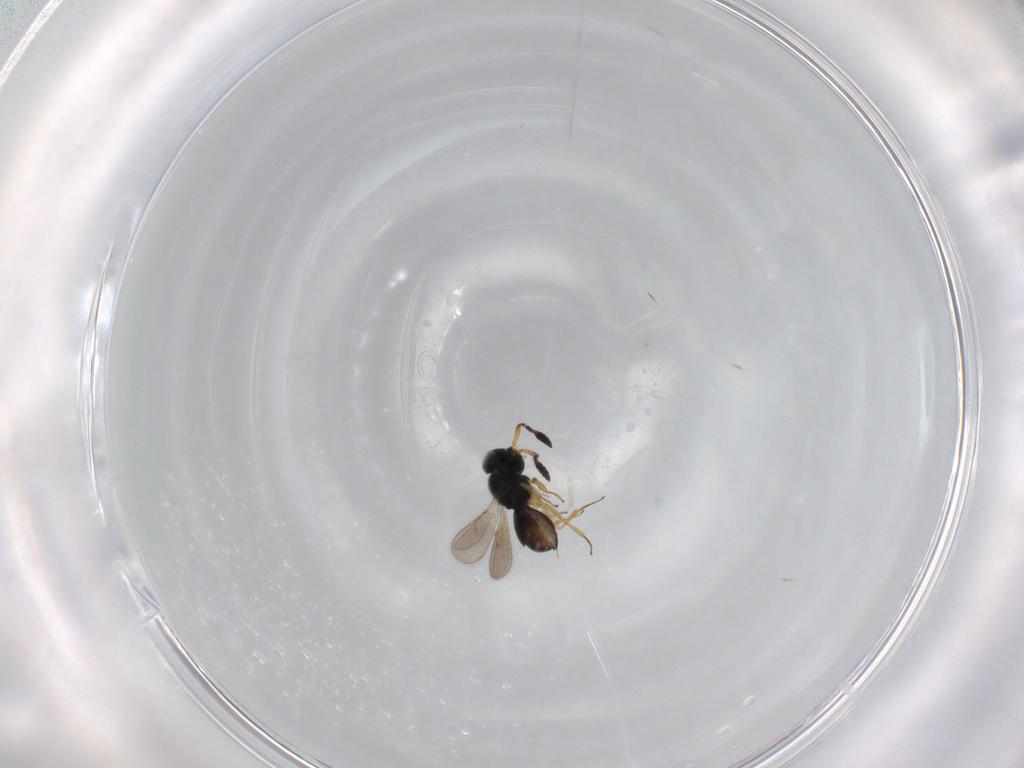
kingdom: Animalia
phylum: Arthropoda
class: Insecta
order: Hymenoptera
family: Scelionidae
